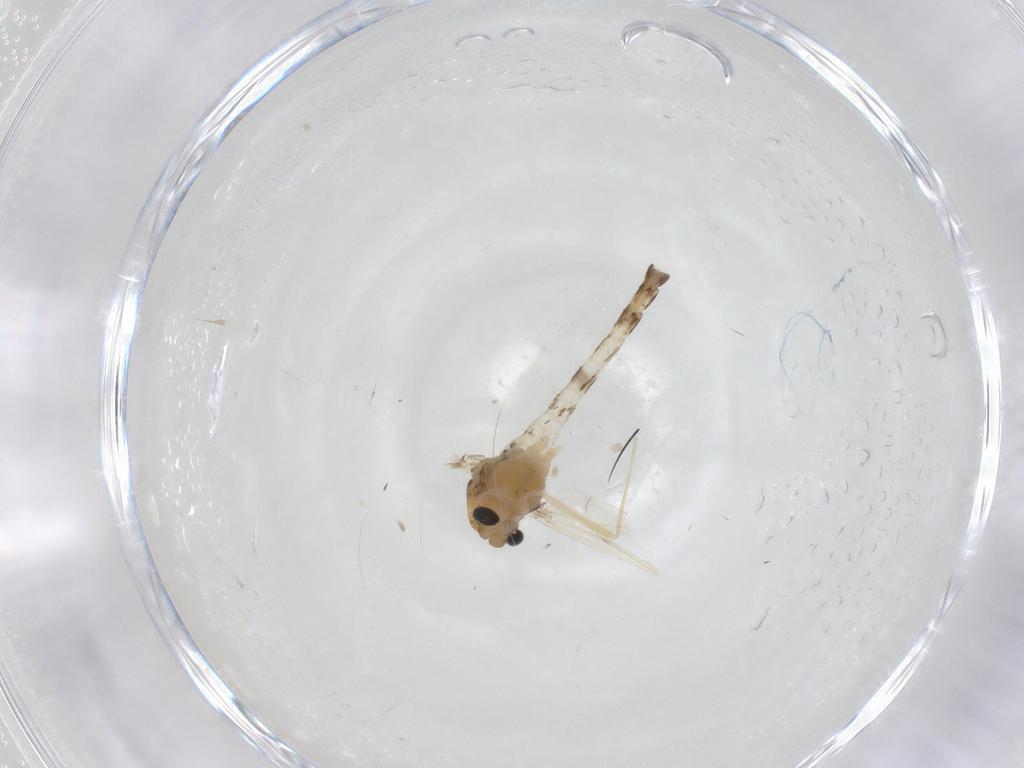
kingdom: Animalia
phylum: Arthropoda
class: Insecta
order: Diptera
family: Chironomidae
